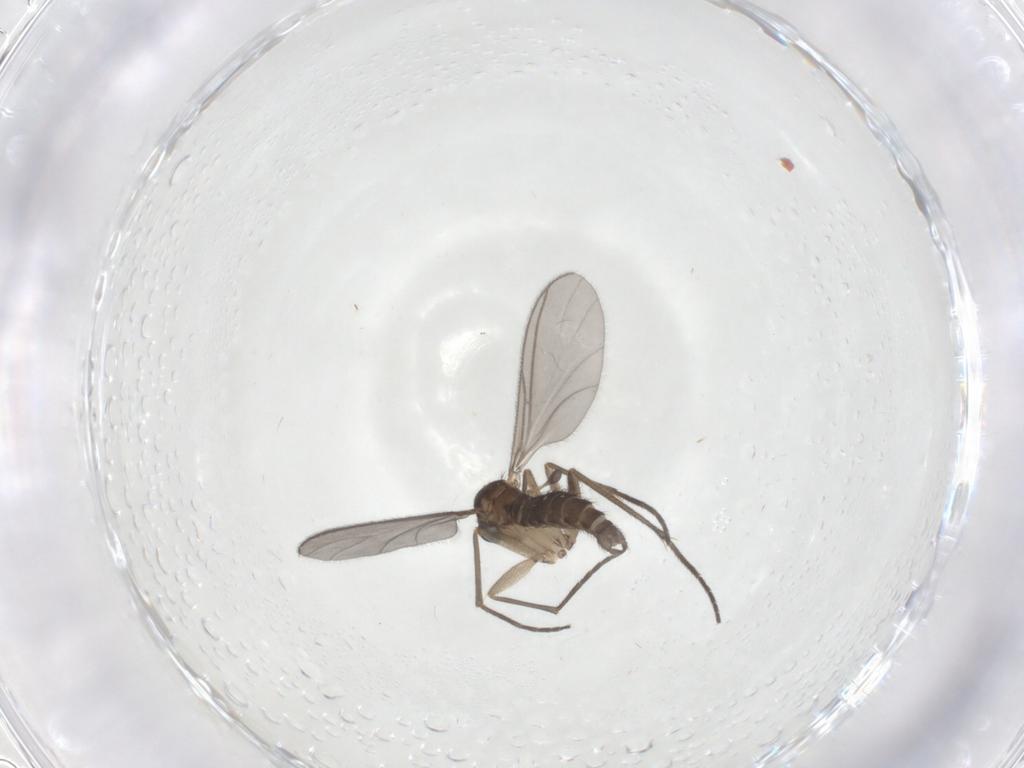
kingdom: Animalia
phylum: Arthropoda
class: Insecta
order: Diptera
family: Sciaridae
